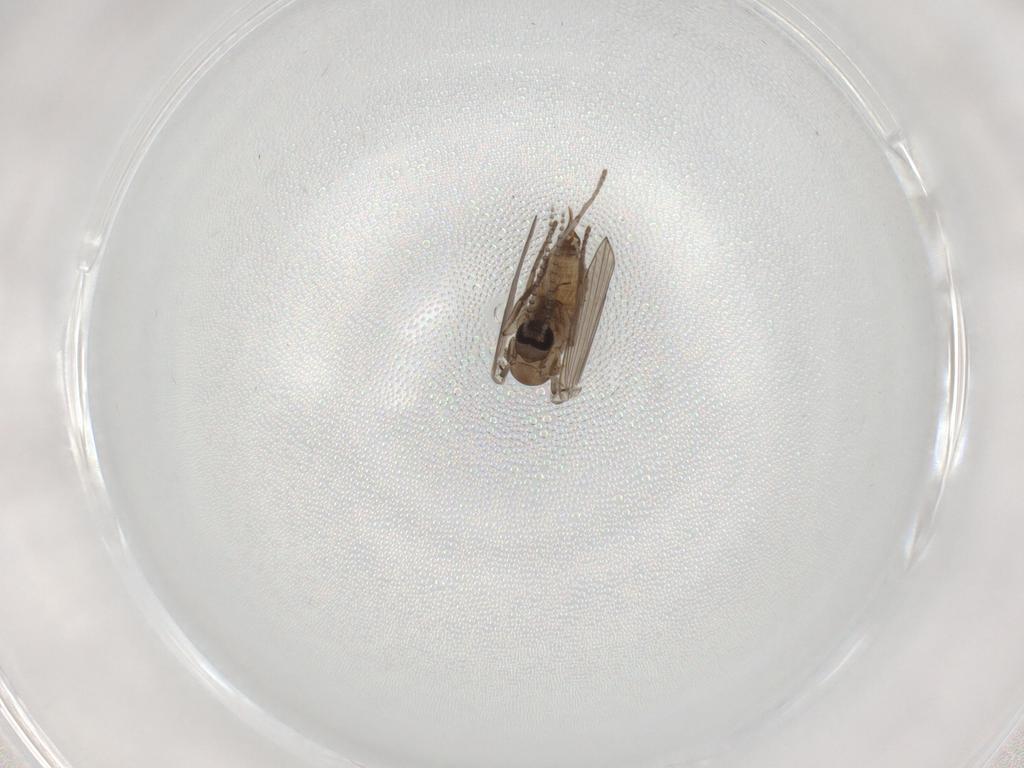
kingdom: Animalia
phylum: Arthropoda
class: Insecta
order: Diptera
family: Psychodidae
